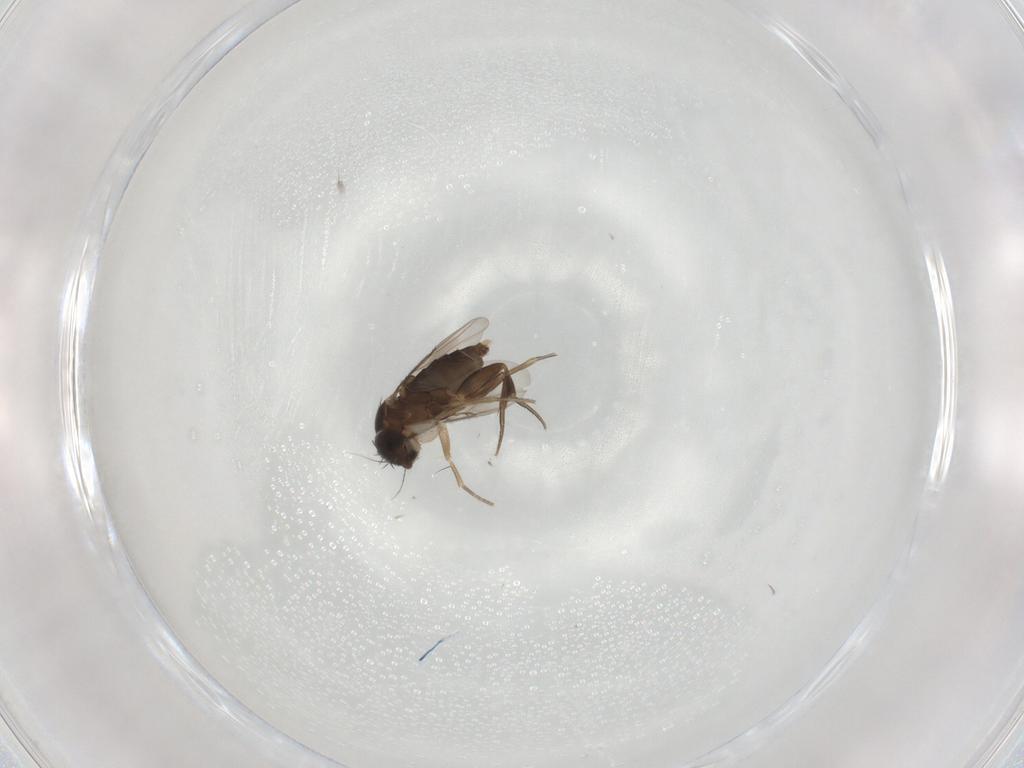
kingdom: Animalia
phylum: Arthropoda
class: Insecta
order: Diptera
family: Phoridae
